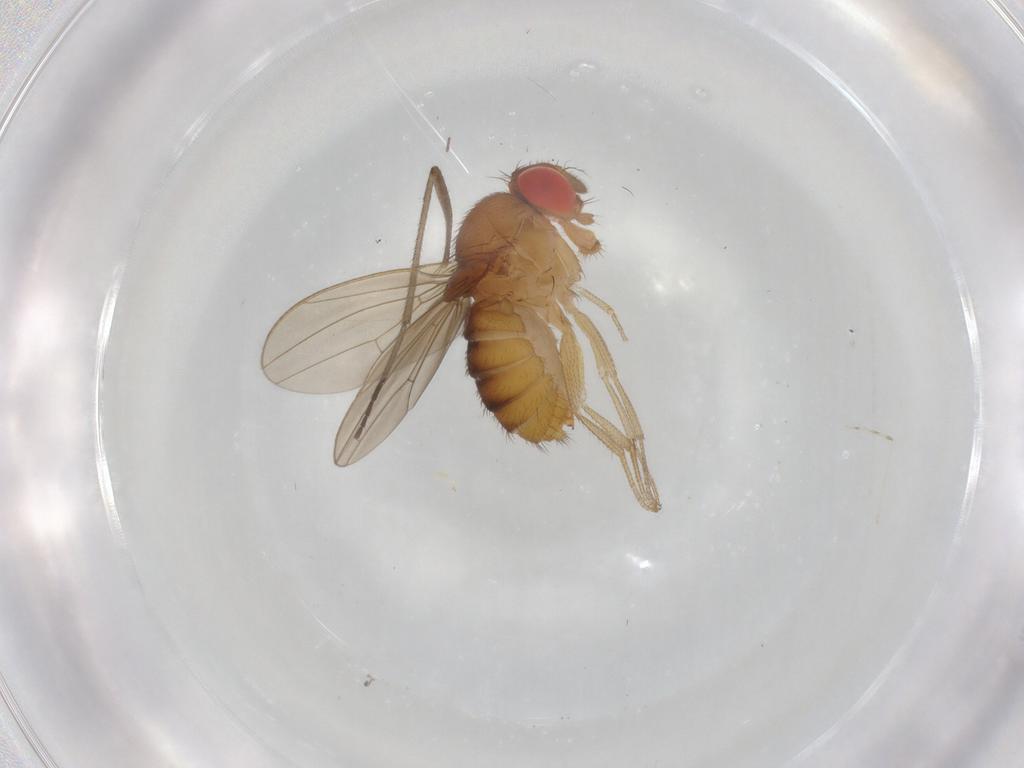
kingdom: Animalia
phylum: Arthropoda
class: Insecta
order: Diptera
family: Drosophilidae
